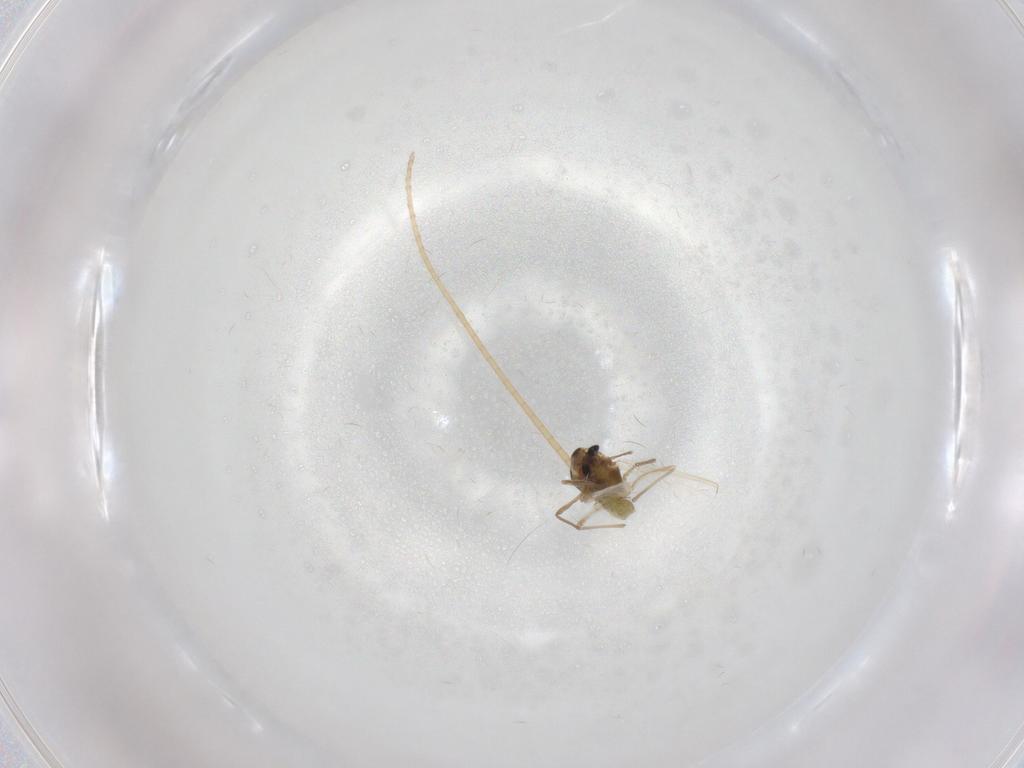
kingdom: Animalia
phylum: Arthropoda
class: Insecta
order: Diptera
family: Chironomidae
